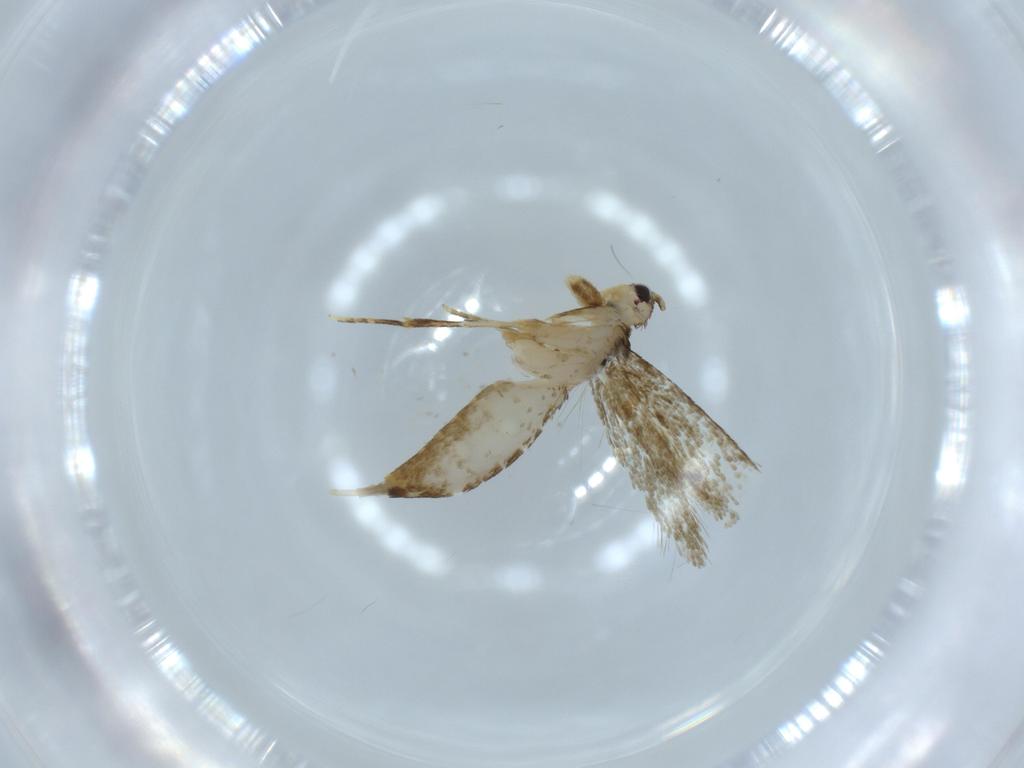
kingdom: Animalia
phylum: Arthropoda
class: Insecta
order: Lepidoptera
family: Tineidae
